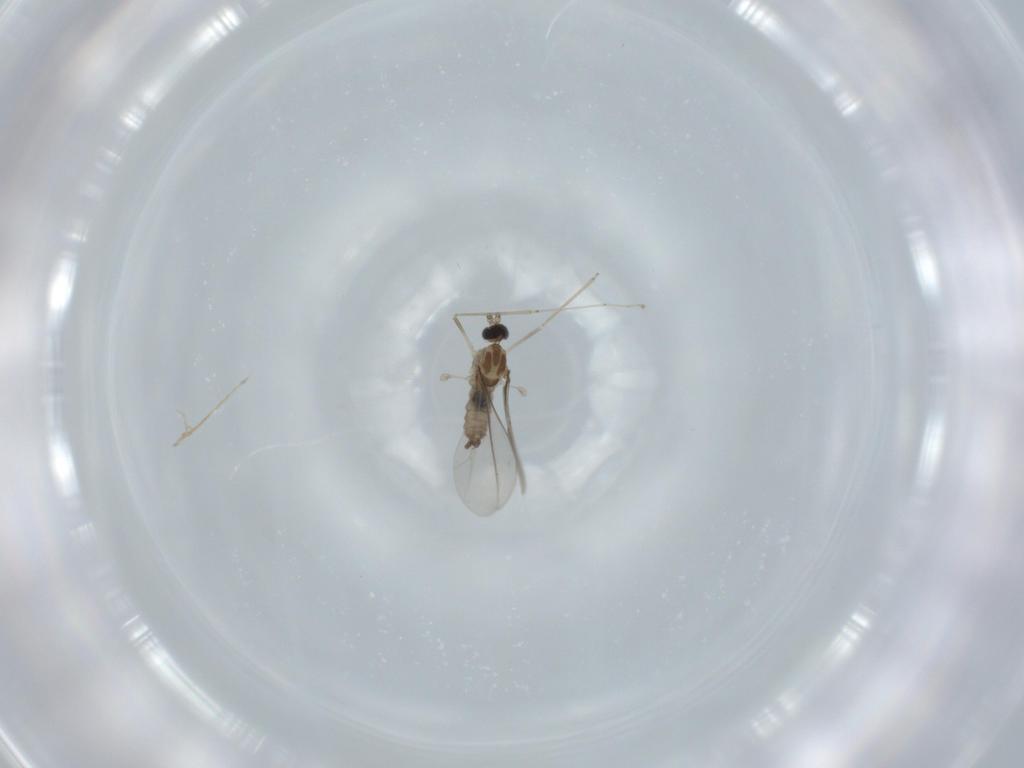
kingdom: Animalia
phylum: Arthropoda
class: Insecta
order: Diptera
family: Cecidomyiidae
